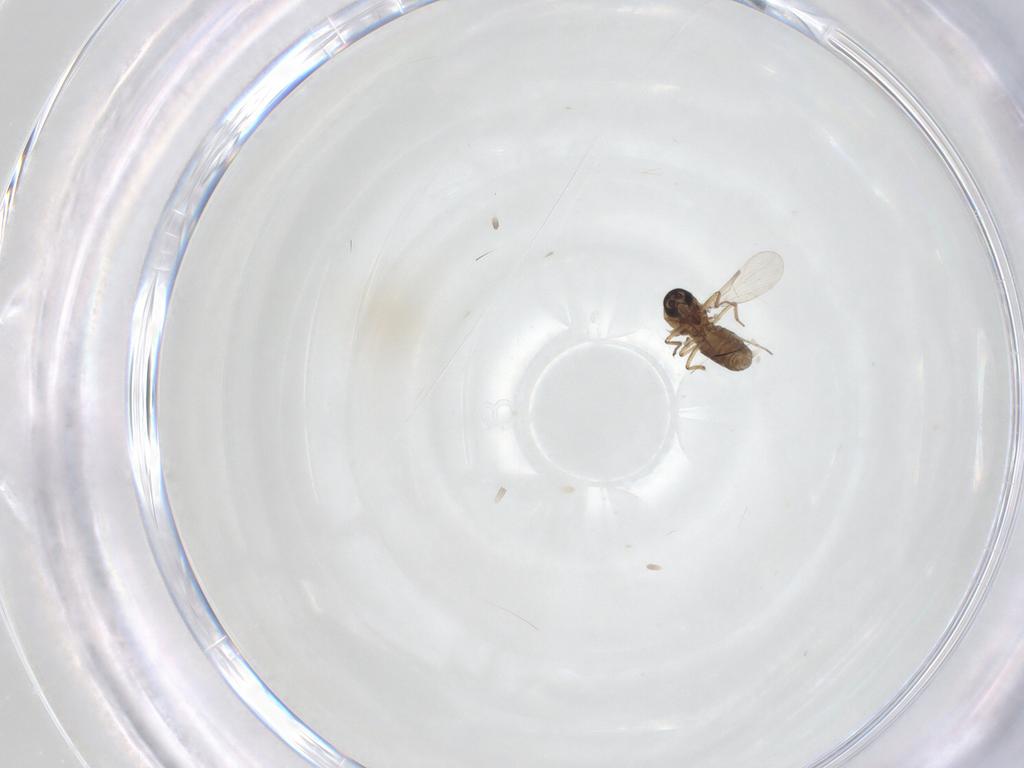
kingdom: Animalia
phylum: Arthropoda
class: Insecta
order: Diptera
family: Ceratopogonidae
